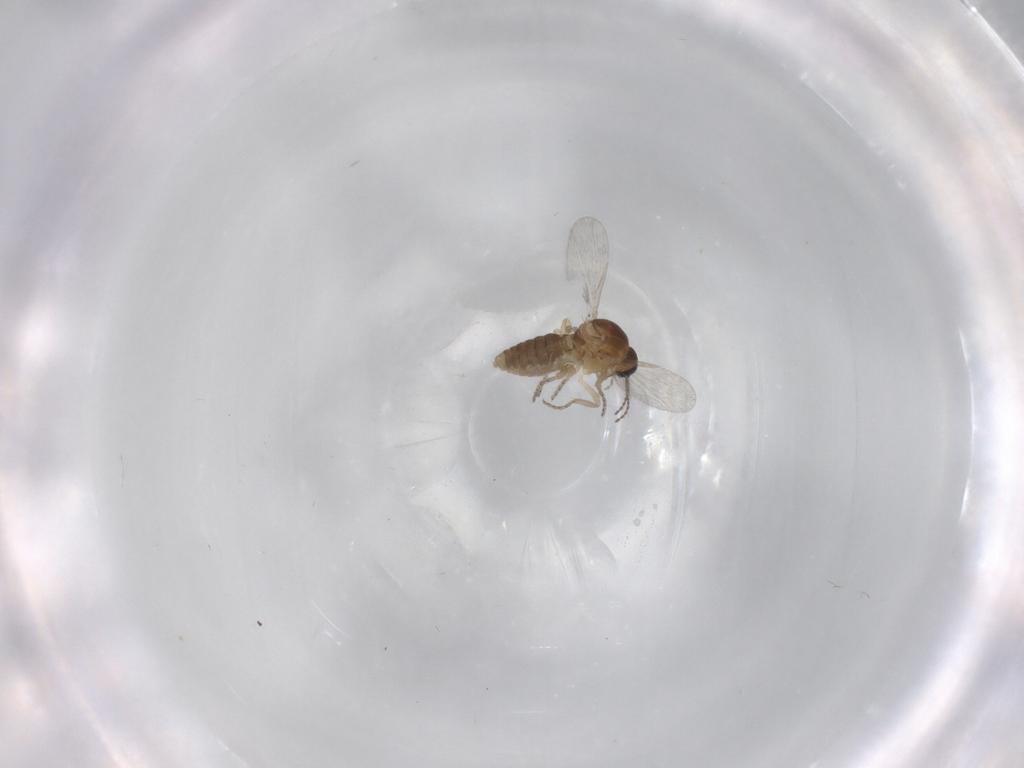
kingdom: Animalia
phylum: Arthropoda
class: Insecta
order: Diptera
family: Ceratopogonidae
